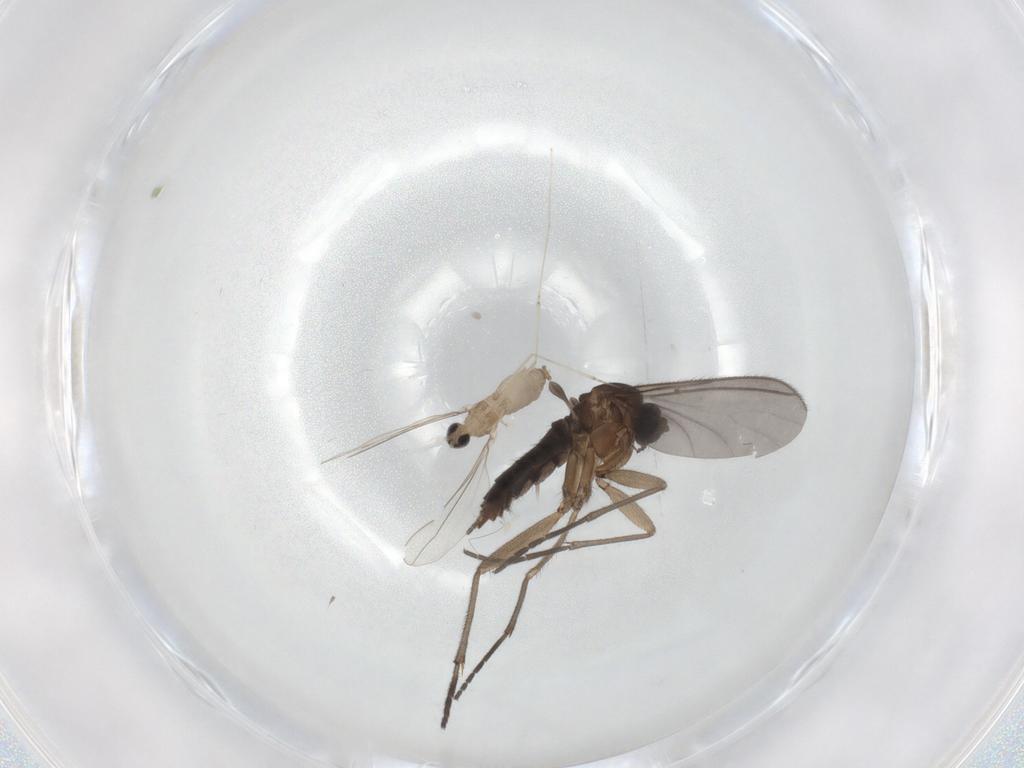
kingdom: Animalia
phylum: Arthropoda
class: Insecta
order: Diptera
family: Cecidomyiidae
